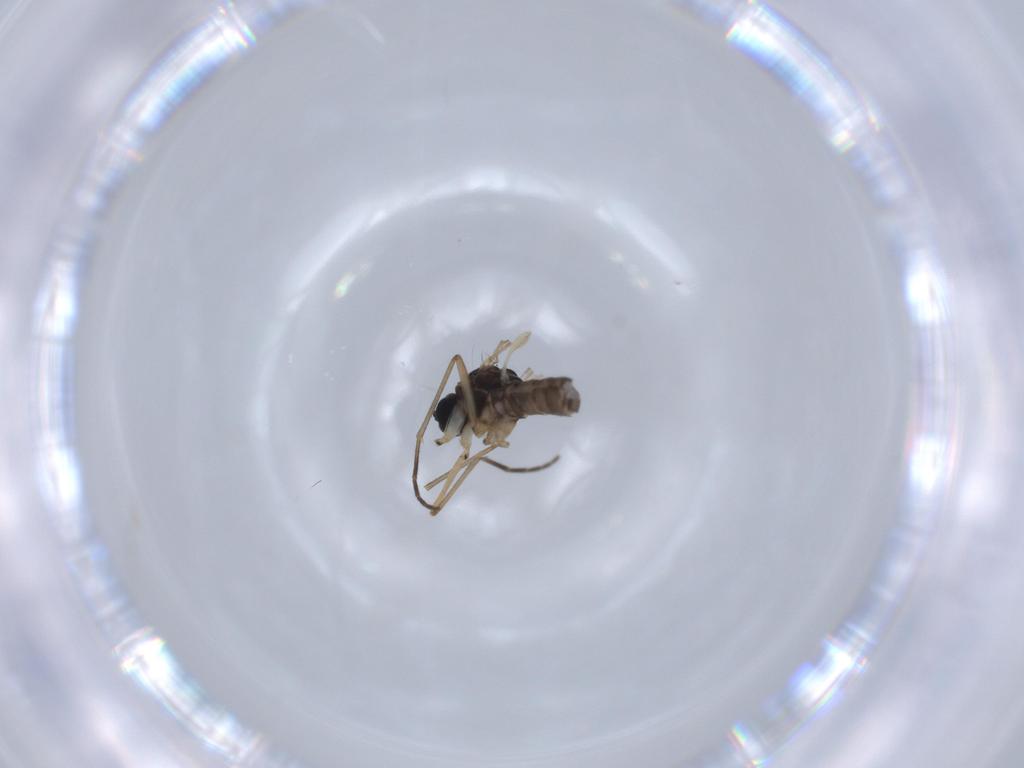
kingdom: Animalia
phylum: Arthropoda
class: Insecta
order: Diptera
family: Sciaridae
